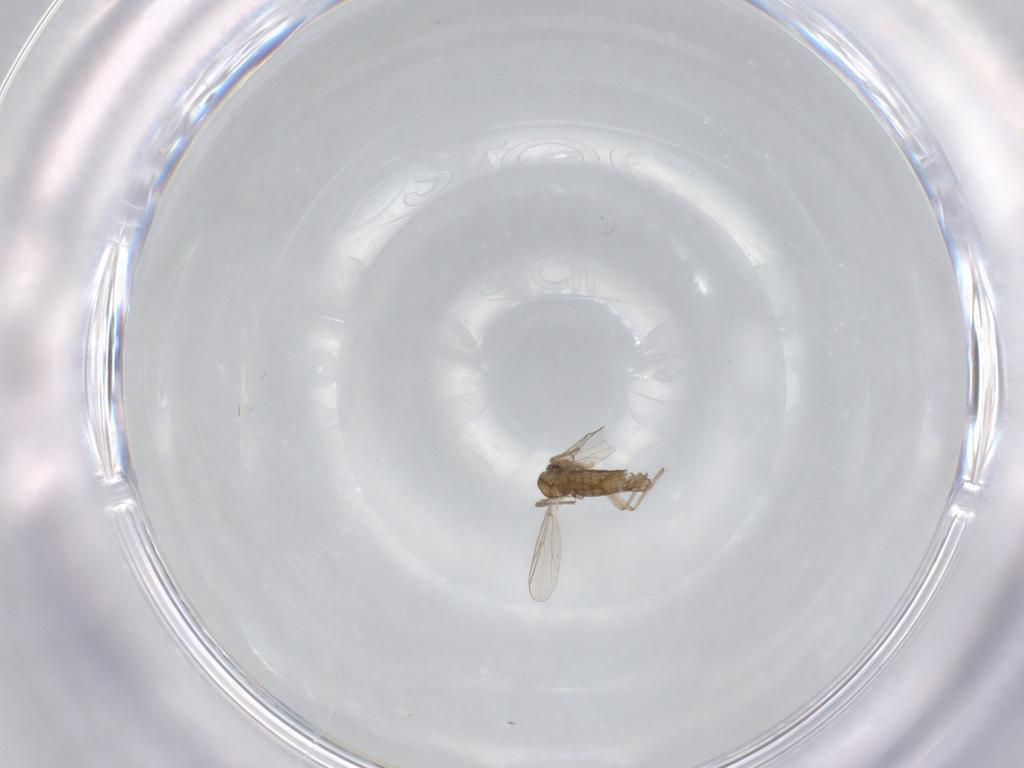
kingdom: Animalia
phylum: Arthropoda
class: Insecta
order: Diptera
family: Chironomidae
